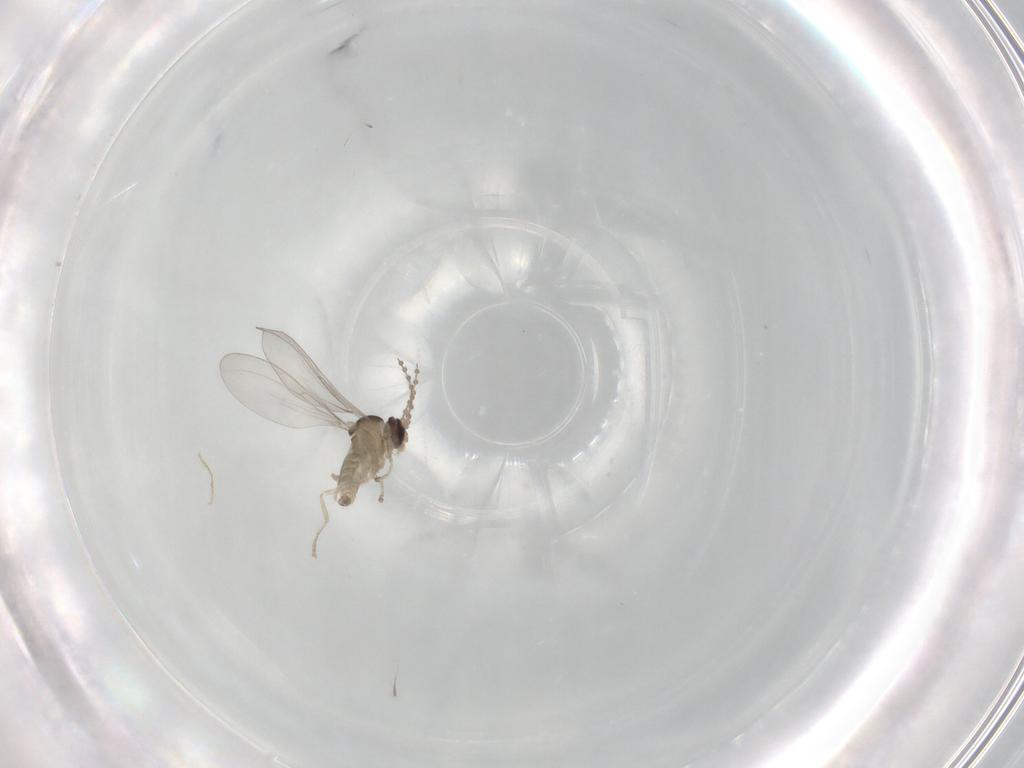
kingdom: Animalia
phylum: Arthropoda
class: Insecta
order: Diptera
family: Cecidomyiidae
